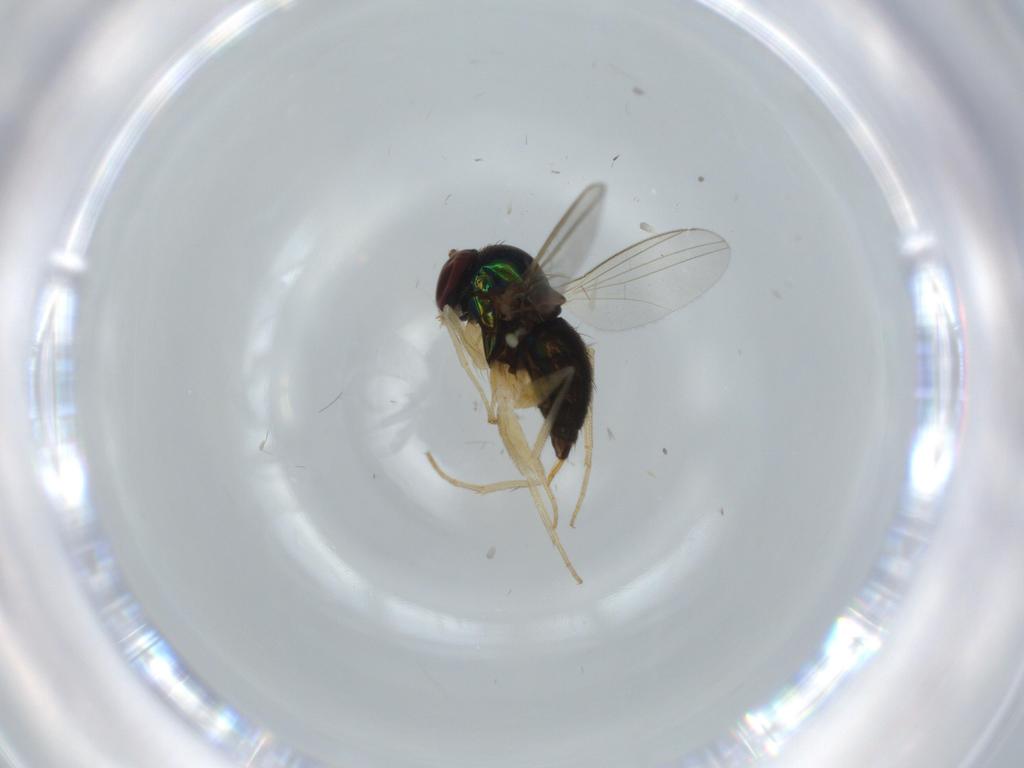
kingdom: Animalia
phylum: Arthropoda
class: Insecta
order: Diptera
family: Dolichopodidae
